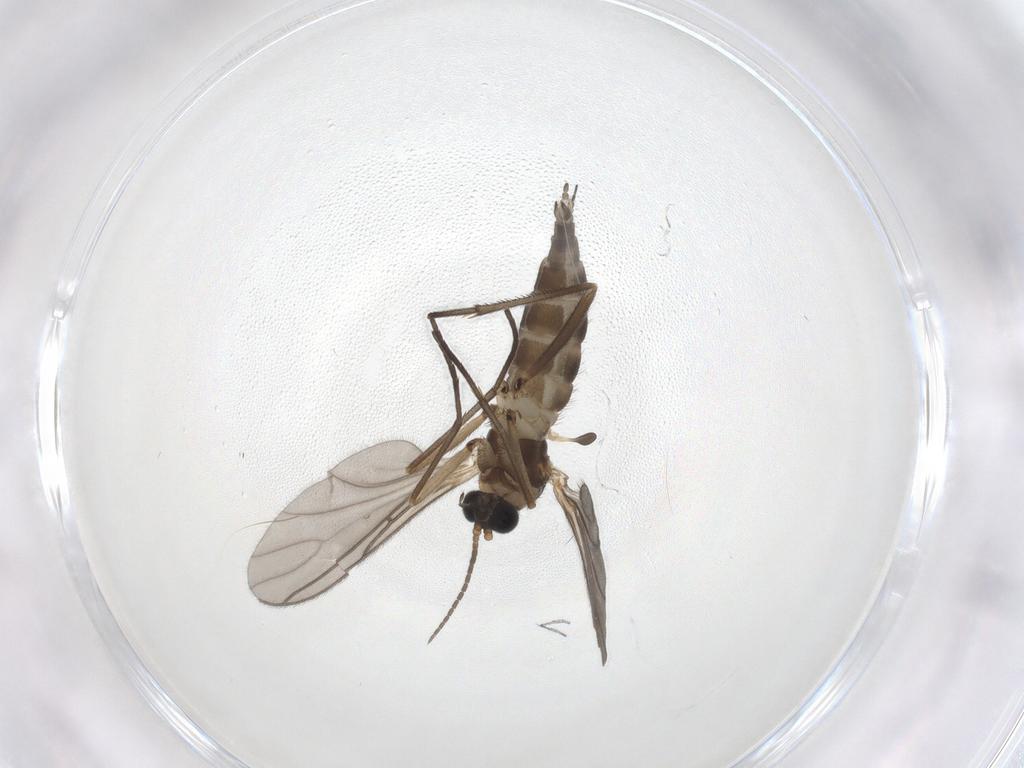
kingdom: Animalia
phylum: Arthropoda
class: Insecta
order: Diptera
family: Sciaridae
